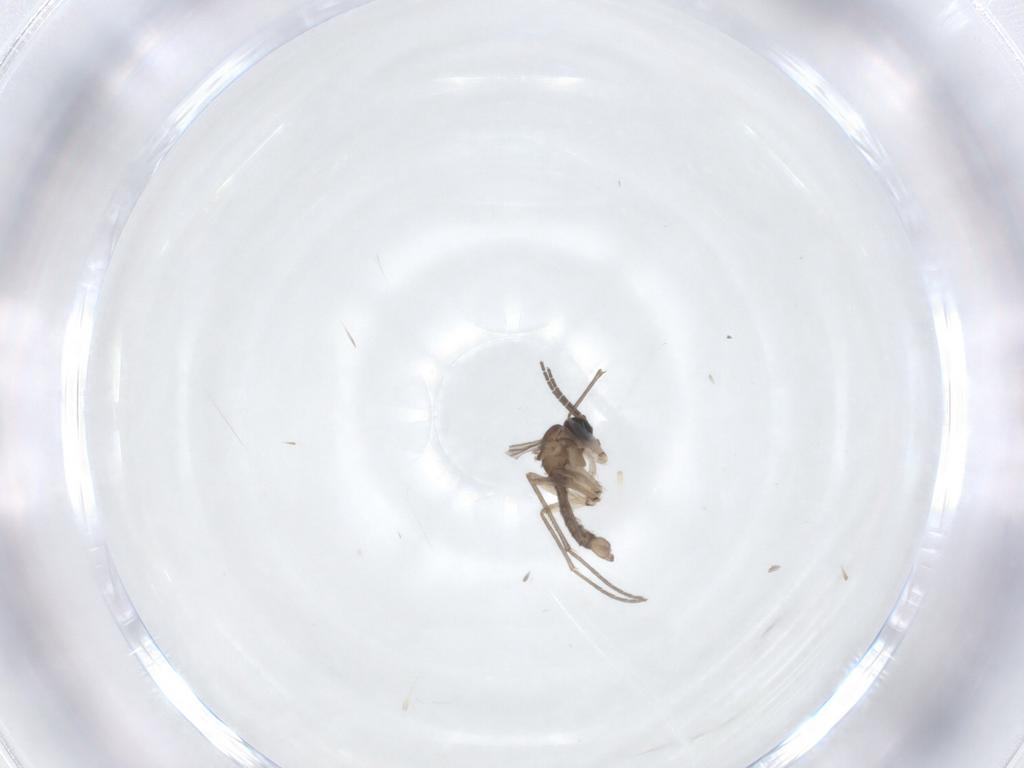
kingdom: Animalia
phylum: Arthropoda
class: Insecta
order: Diptera
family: Sciaridae
